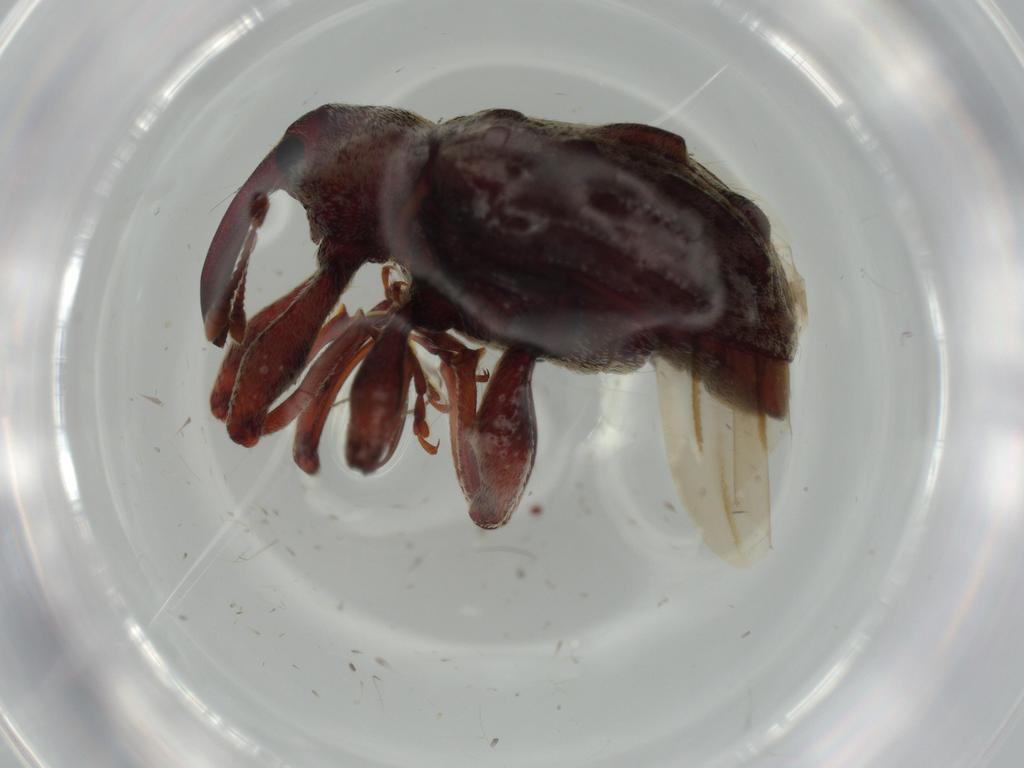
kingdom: Animalia
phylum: Arthropoda
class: Insecta
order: Coleoptera
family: Curculionidae
